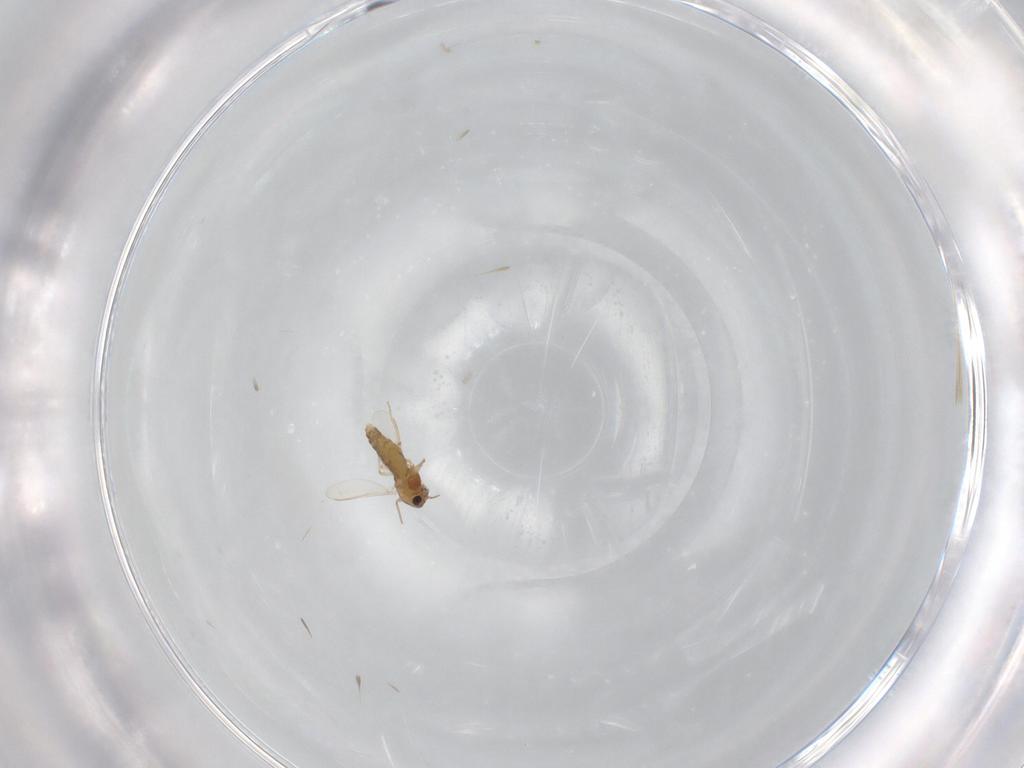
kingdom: Animalia
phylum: Arthropoda
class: Insecta
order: Diptera
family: Chironomidae
